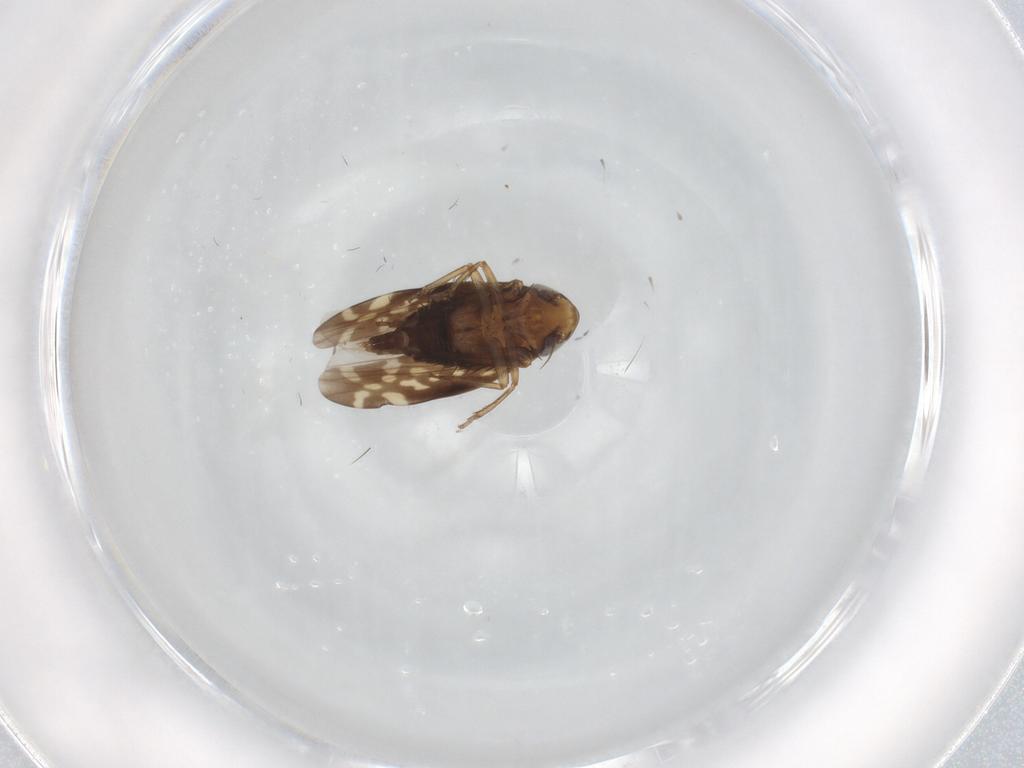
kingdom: Animalia
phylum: Arthropoda
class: Insecta
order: Hemiptera
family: Cicadellidae
